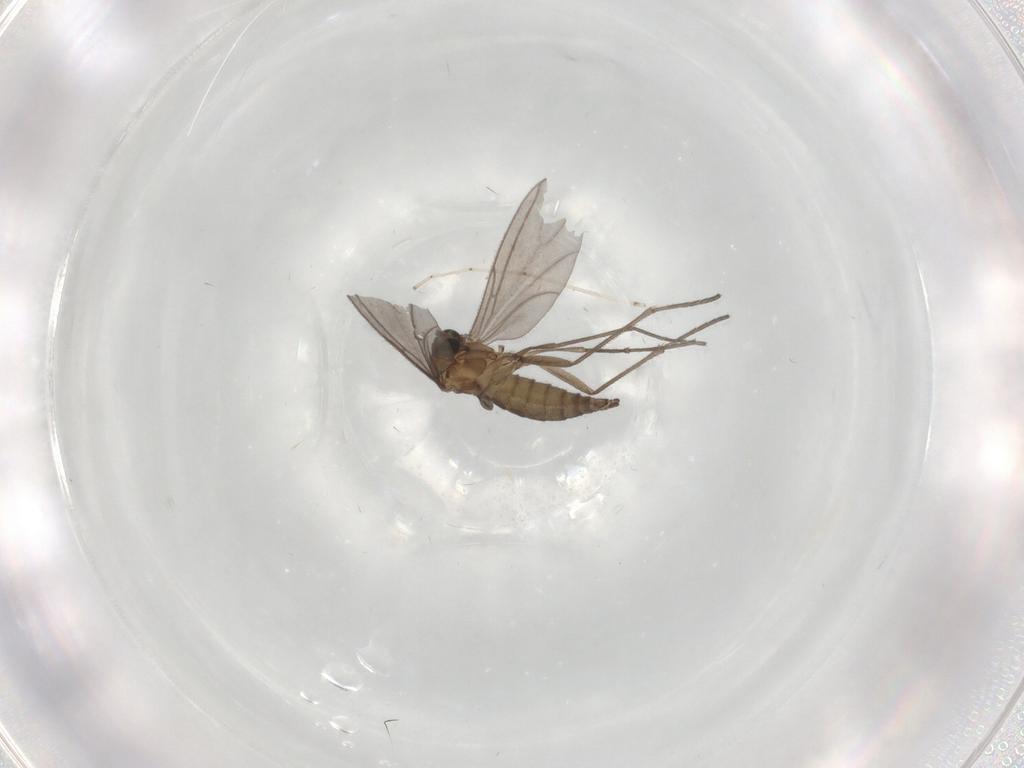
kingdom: Animalia
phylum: Arthropoda
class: Insecta
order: Diptera
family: Sciaridae
